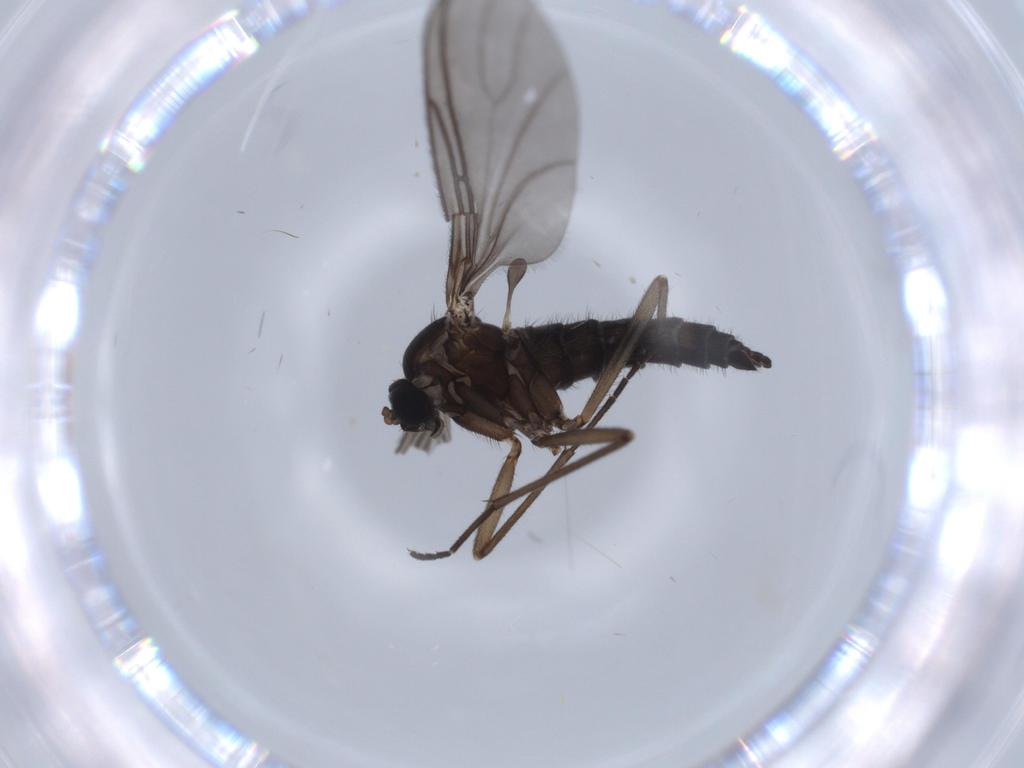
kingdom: Animalia
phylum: Arthropoda
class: Insecta
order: Diptera
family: Sciaridae
